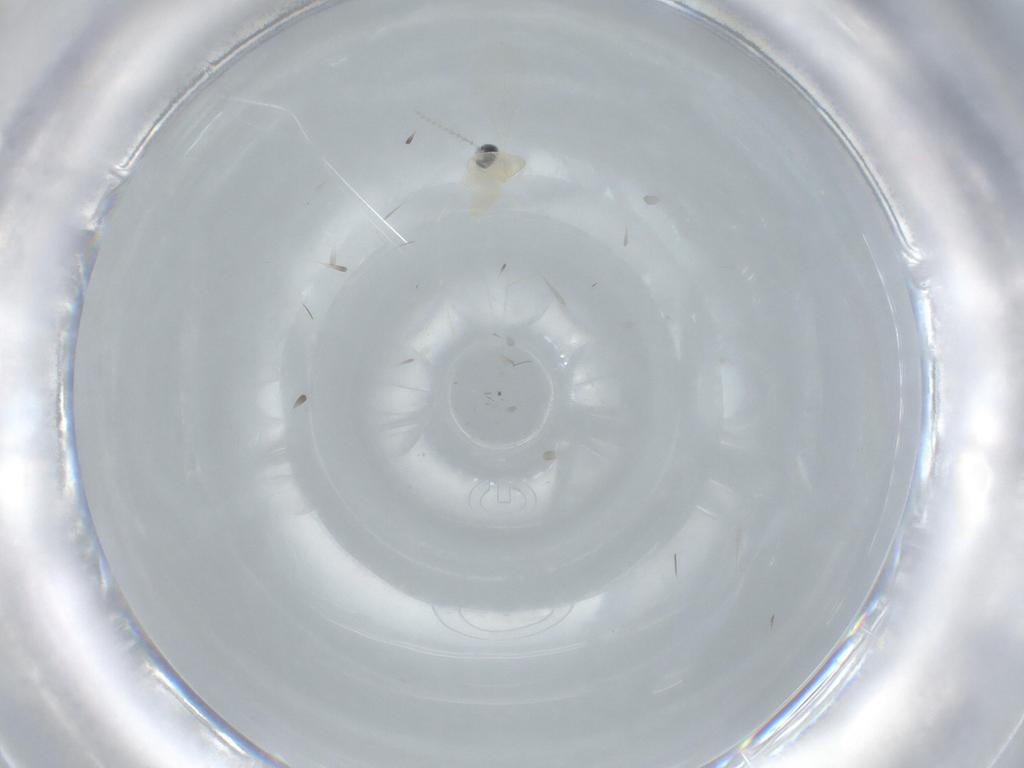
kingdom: Animalia
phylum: Arthropoda
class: Insecta
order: Diptera
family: Cecidomyiidae
